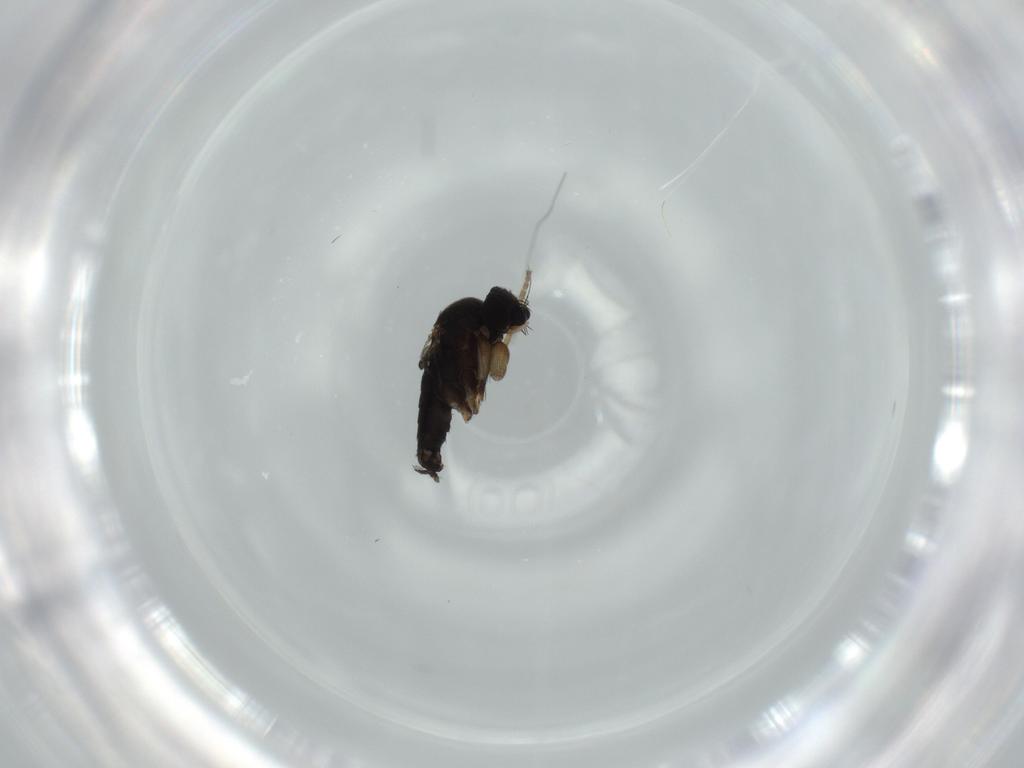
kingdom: Animalia
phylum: Arthropoda
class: Insecta
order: Diptera
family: Phoridae
